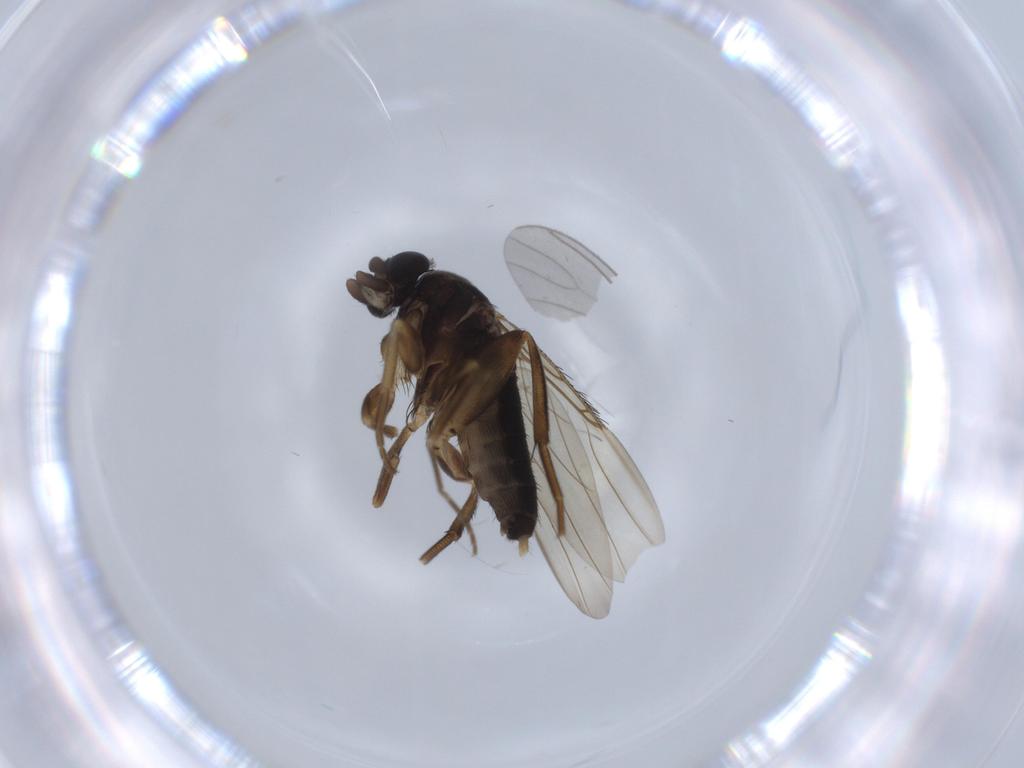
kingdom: Animalia
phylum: Arthropoda
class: Insecta
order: Diptera
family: Phoridae
